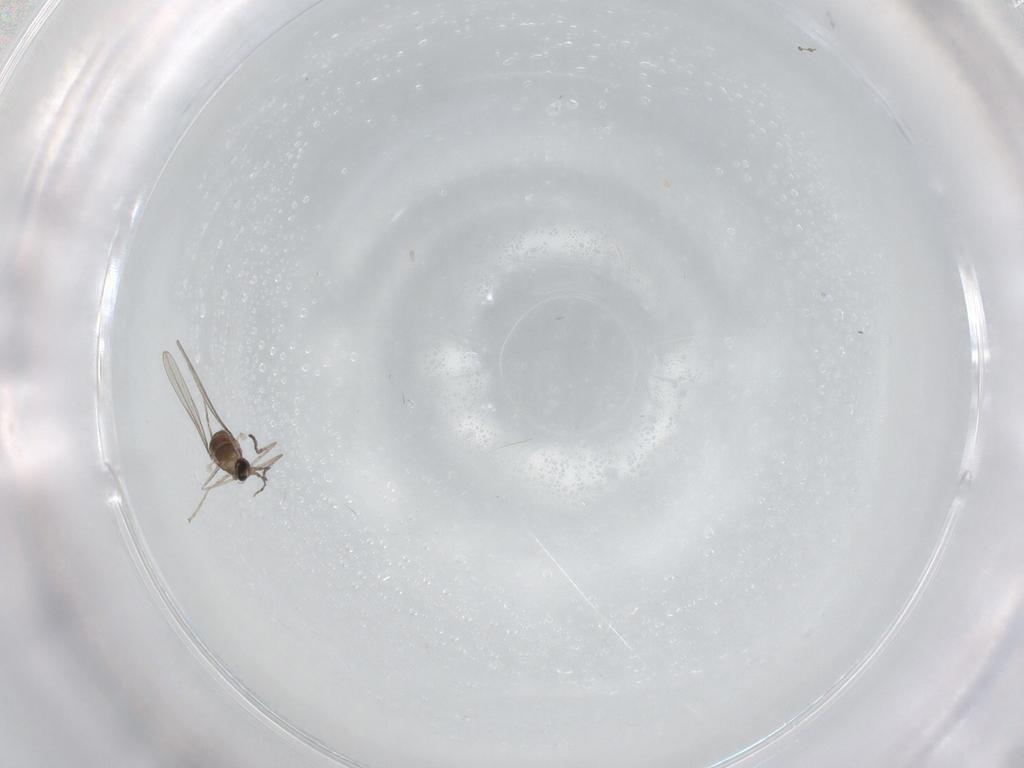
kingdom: Animalia
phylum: Arthropoda
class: Insecta
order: Diptera
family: Cecidomyiidae
